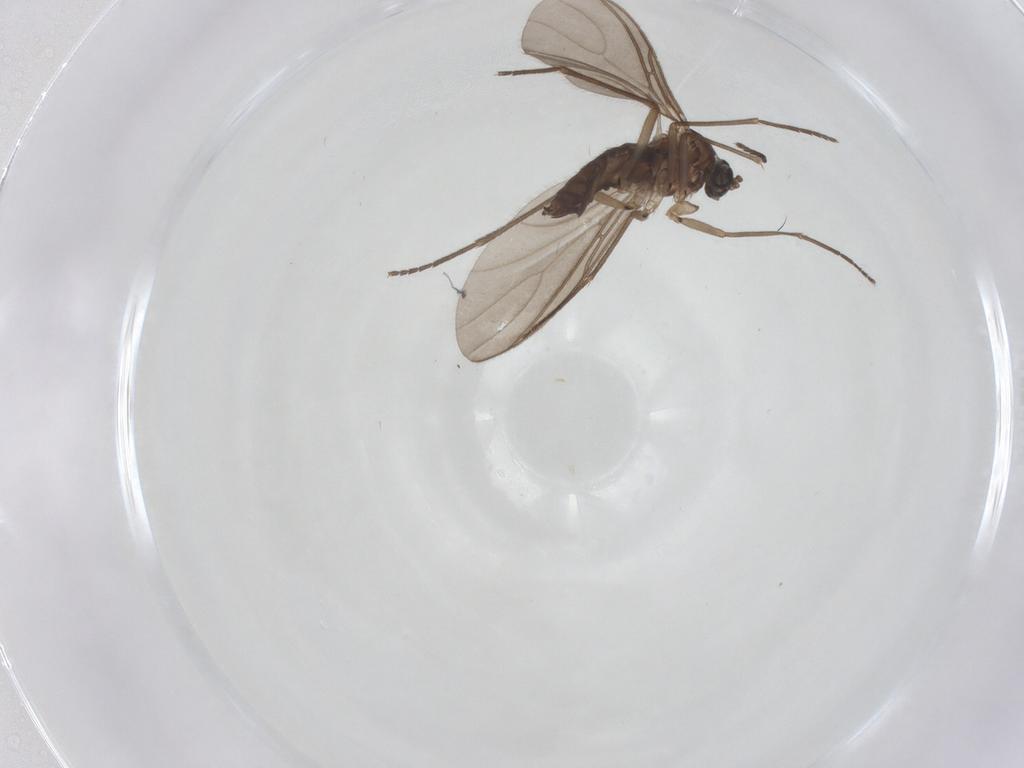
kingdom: Animalia
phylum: Arthropoda
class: Insecta
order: Diptera
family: Sciaridae
